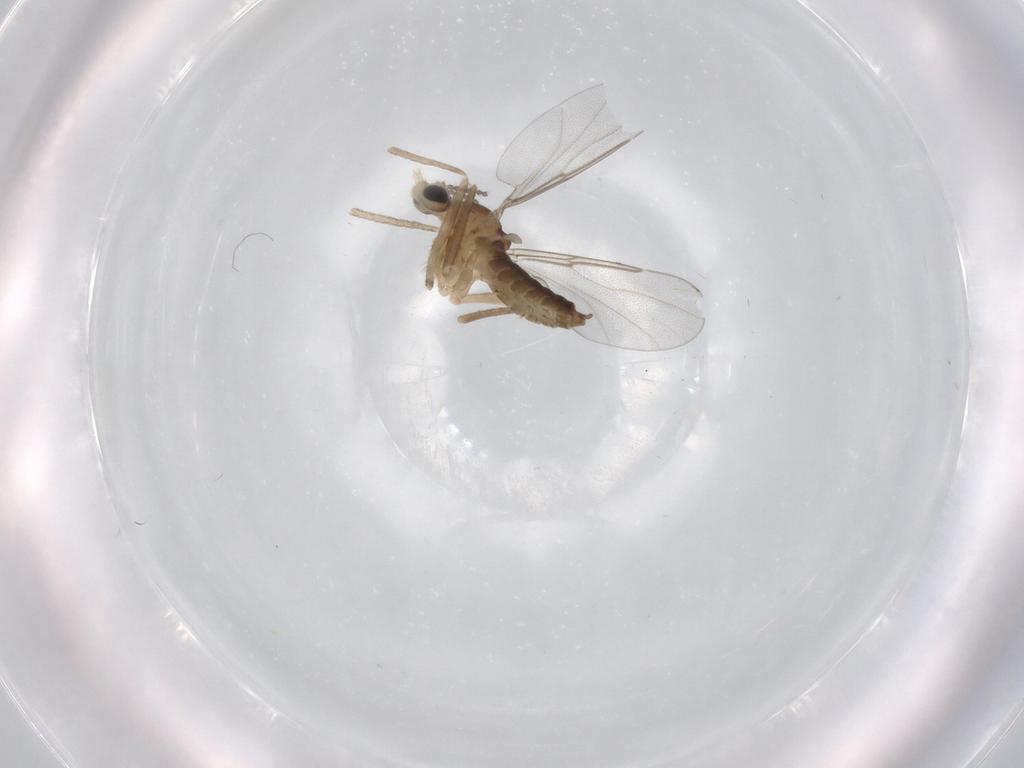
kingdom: Animalia
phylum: Arthropoda
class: Insecta
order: Diptera
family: Cecidomyiidae
